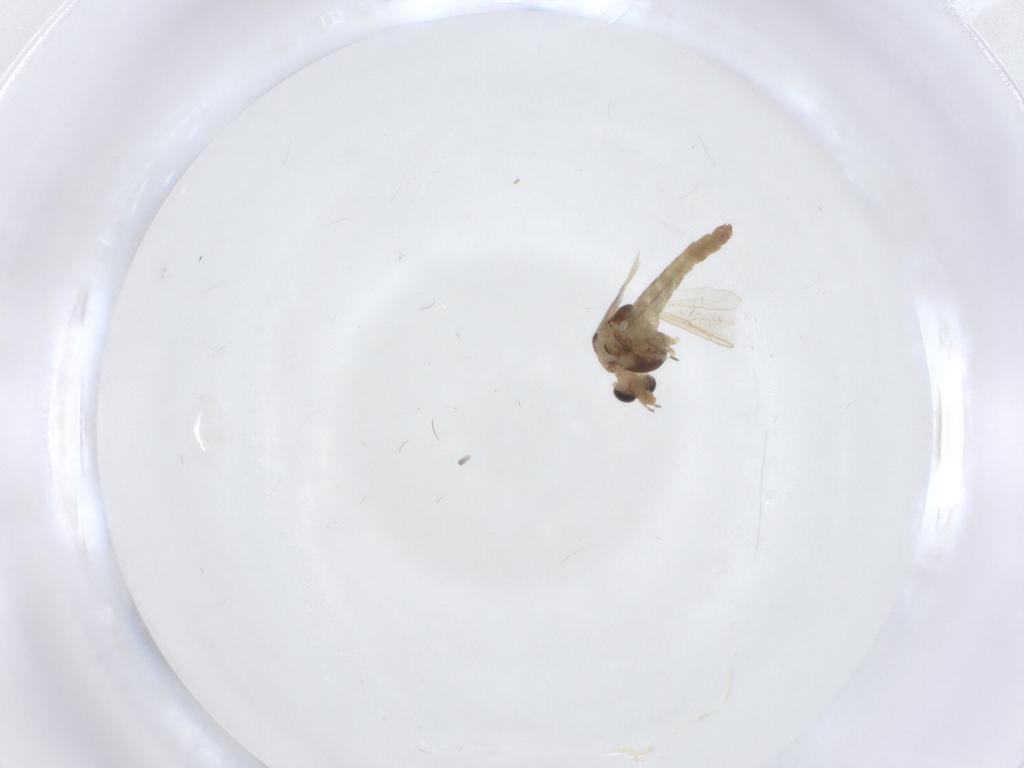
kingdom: Animalia
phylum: Arthropoda
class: Insecta
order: Diptera
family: Chironomidae
